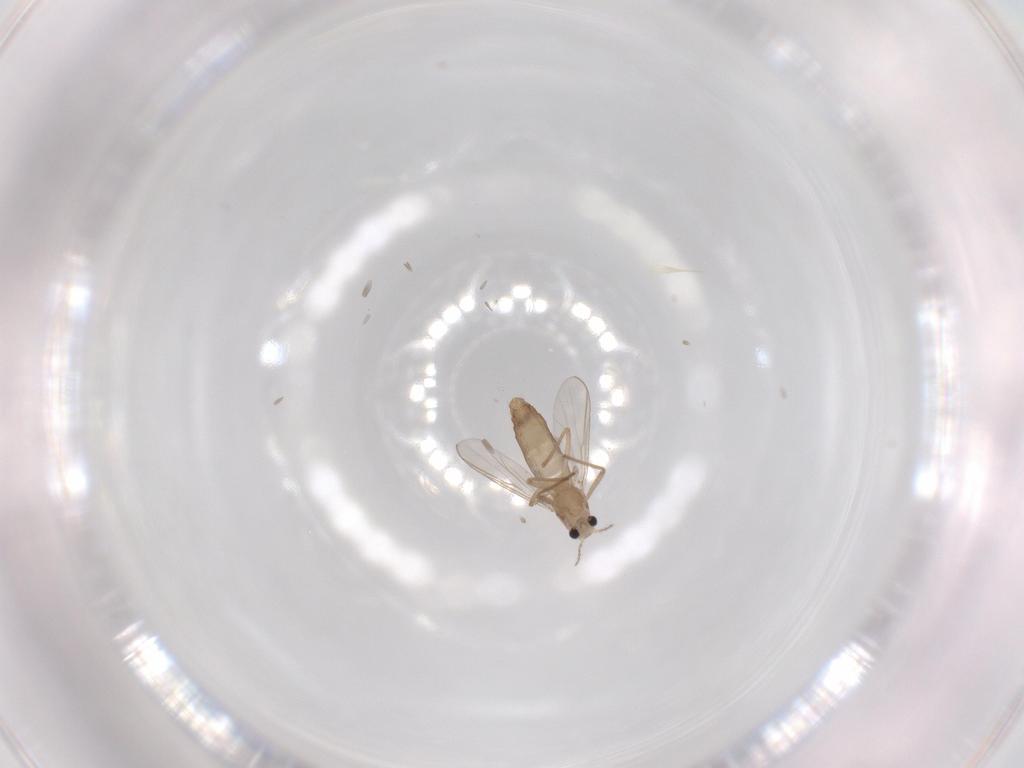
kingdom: Animalia
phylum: Arthropoda
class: Insecta
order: Diptera
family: Chironomidae
